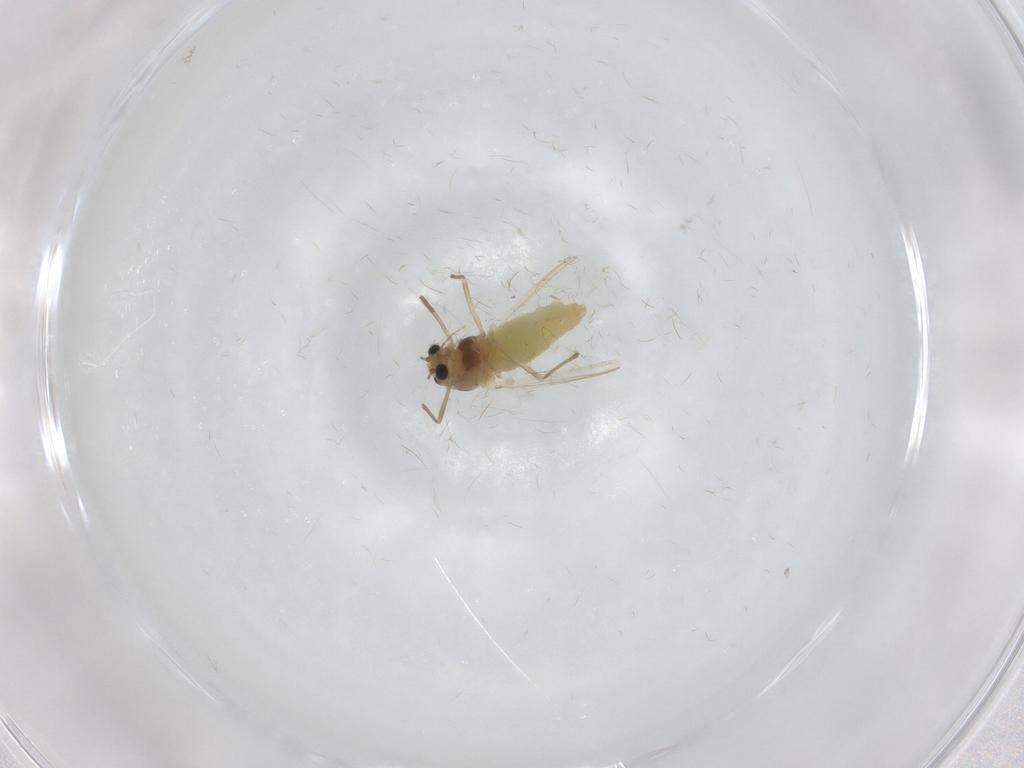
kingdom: Animalia
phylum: Arthropoda
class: Insecta
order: Diptera
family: Chironomidae
